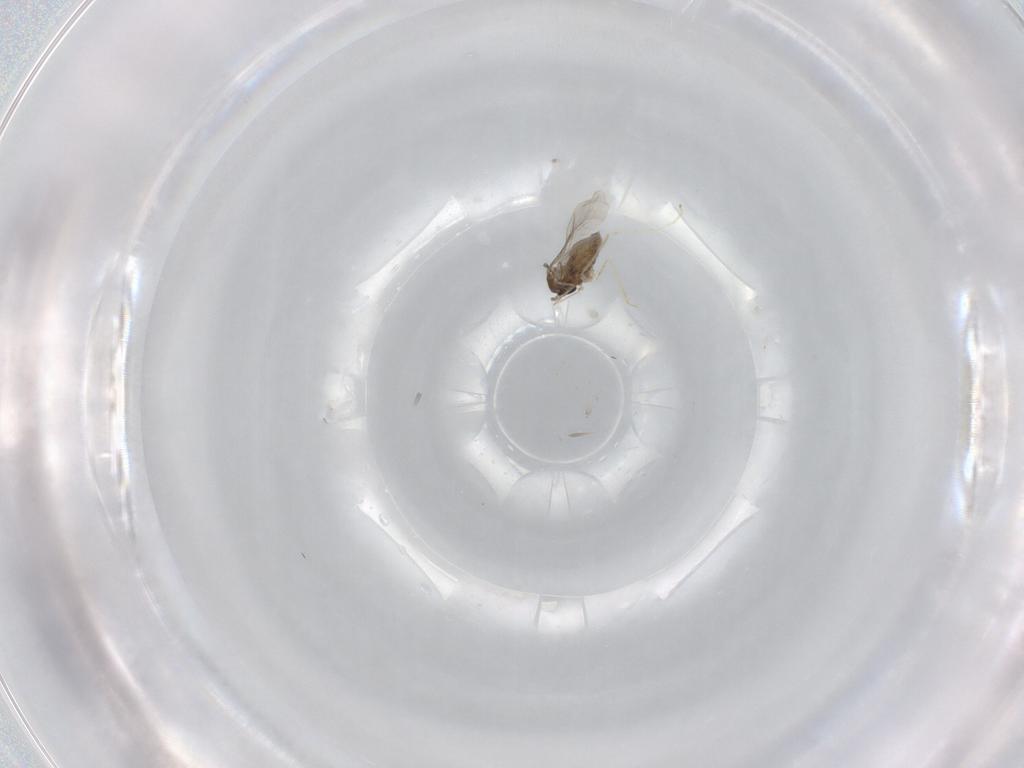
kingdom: Animalia
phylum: Arthropoda
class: Insecta
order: Diptera
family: Cecidomyiidae
